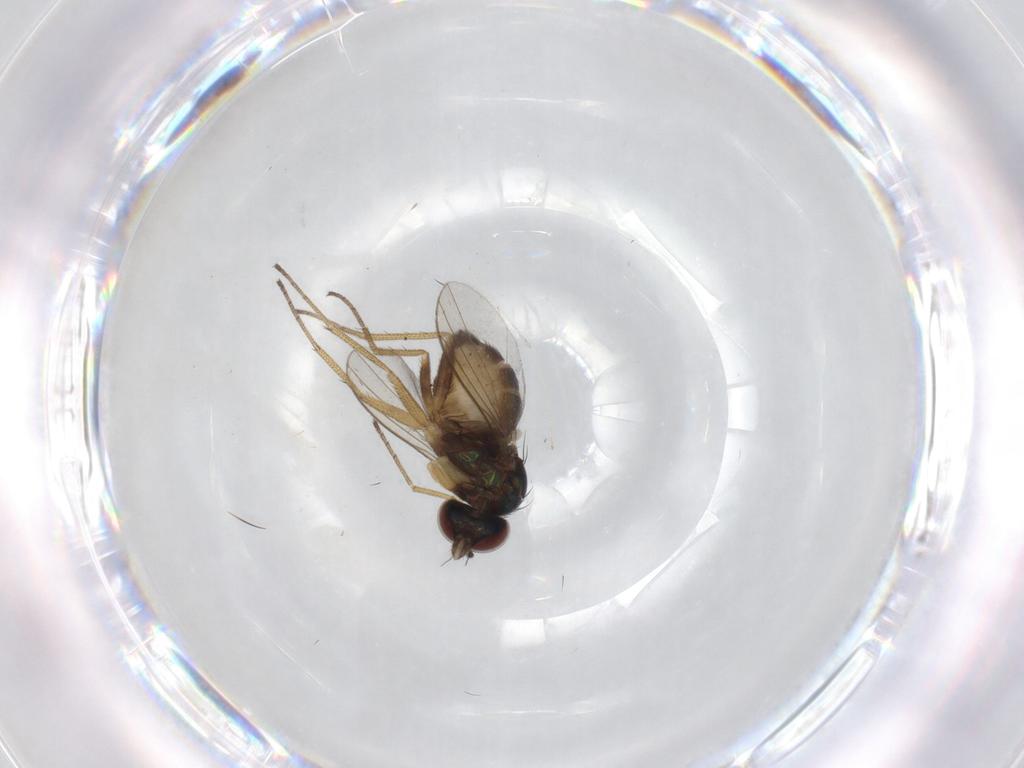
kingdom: Animalia
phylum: Arthropoda
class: Insecta
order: Diptera
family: Dolichopodidae
